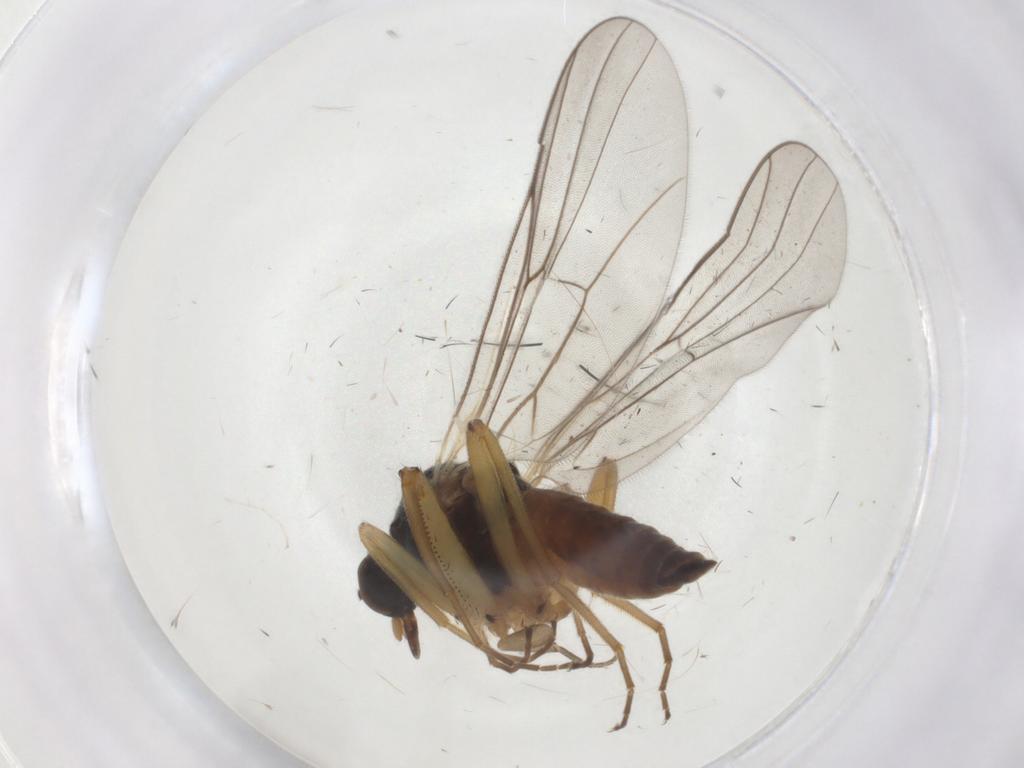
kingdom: Animalia
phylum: Arthropoda
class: Insecta
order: Diptera
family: Hybotidae
